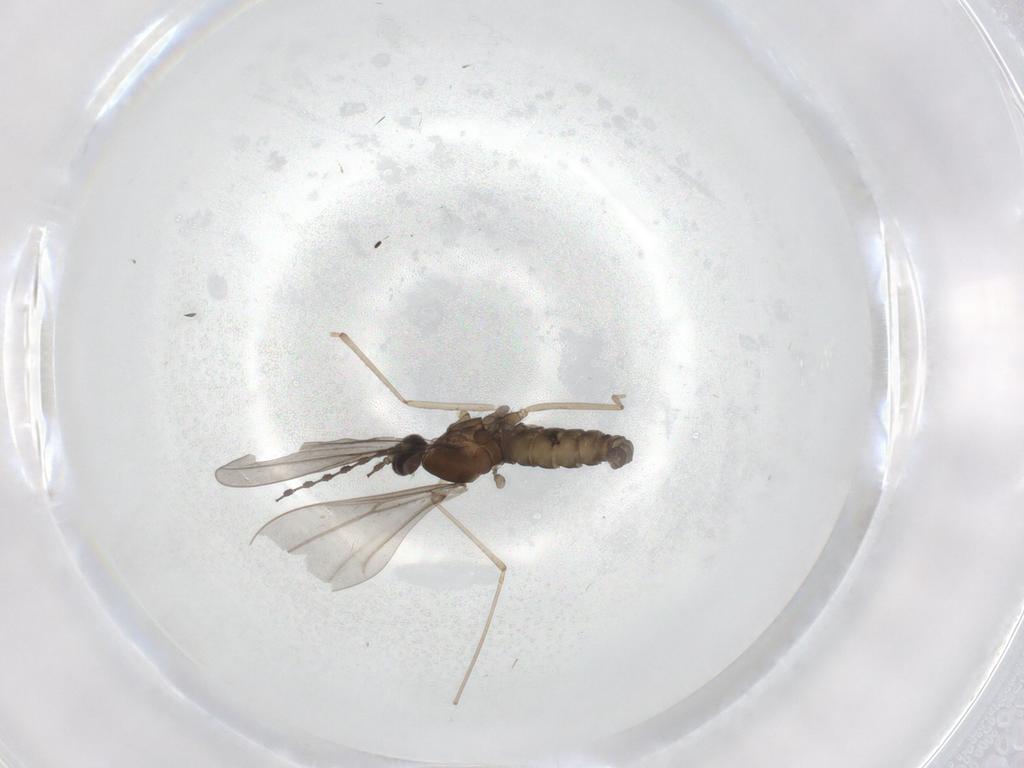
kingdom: Animalia
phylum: Arthropoda
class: Insecta
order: Diptera
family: Cecidomyiidae
